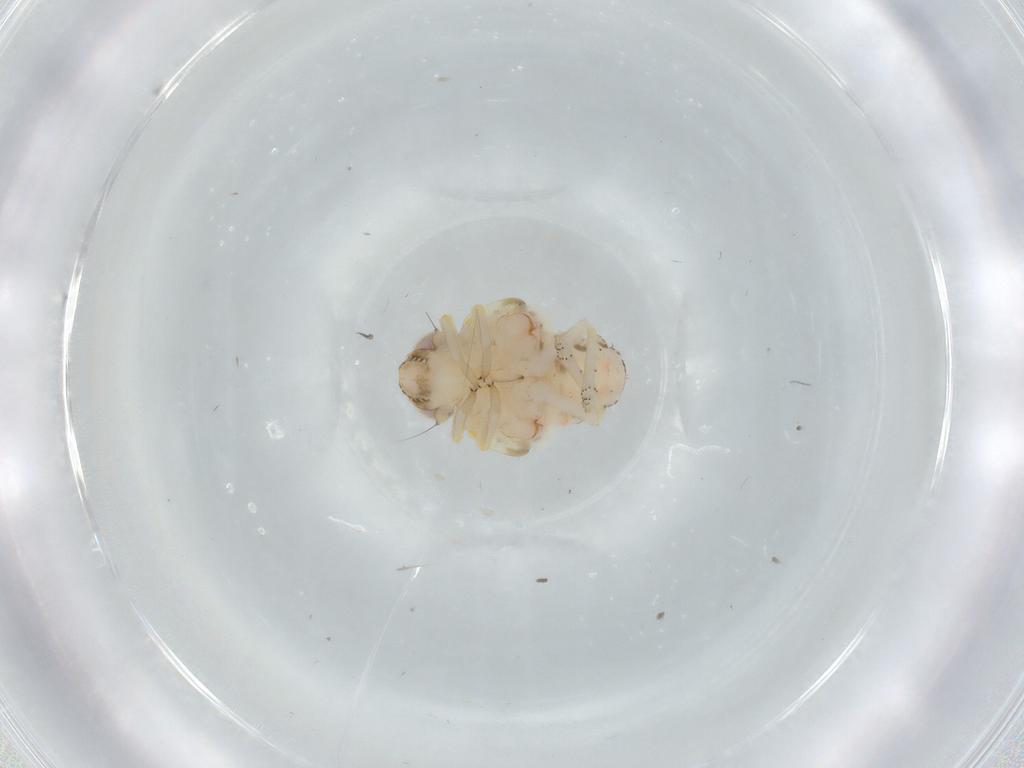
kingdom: Animalia
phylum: Arthropoda
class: Insecta
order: Hemiptera
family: Nogodinidae
